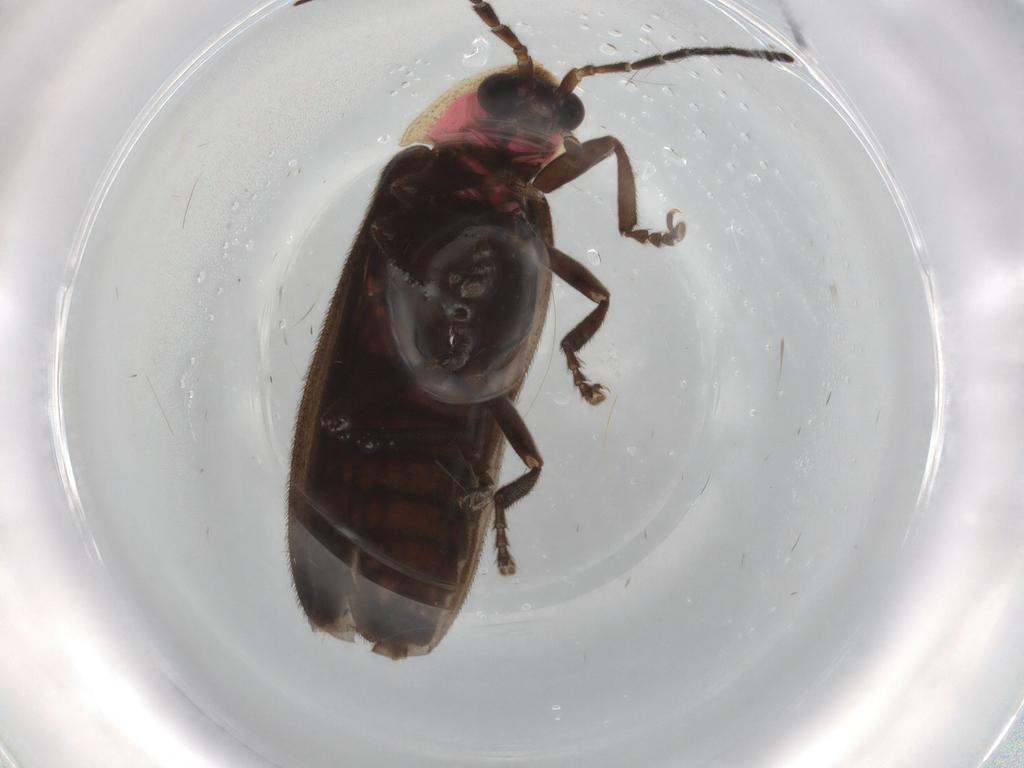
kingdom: Animalia
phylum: Arthropoda
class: Insecta
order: Coleoptera
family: Lampyridae
